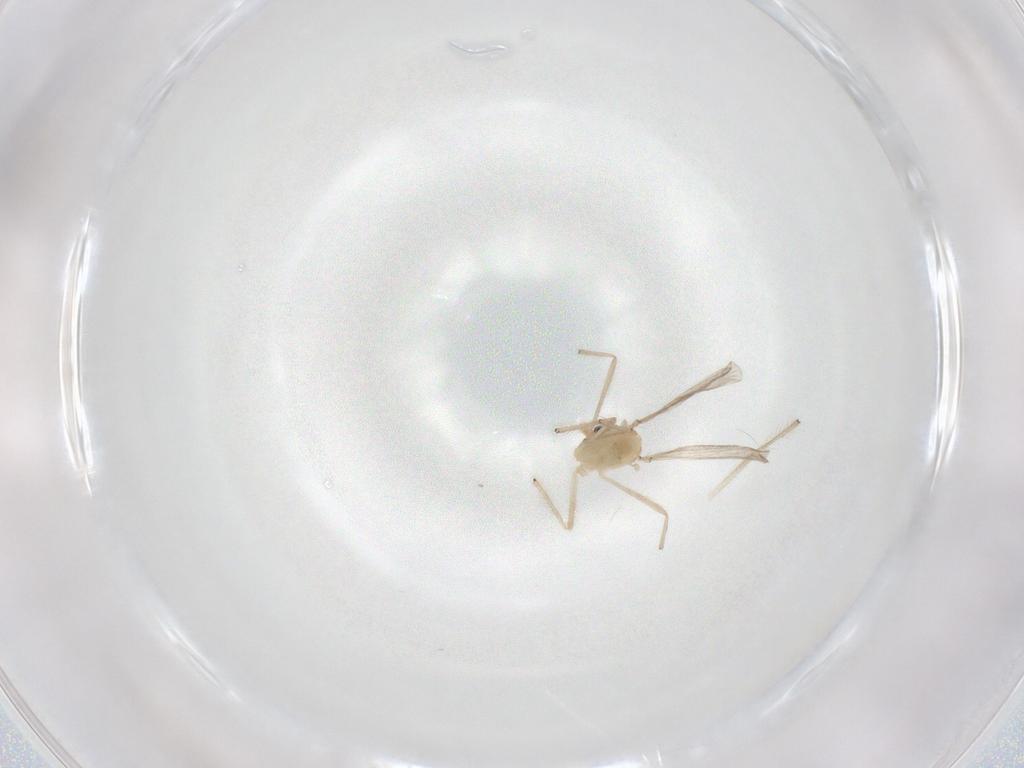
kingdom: Animalia
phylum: Arthropoda
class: Insecta
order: Diptera
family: Chironomidae
